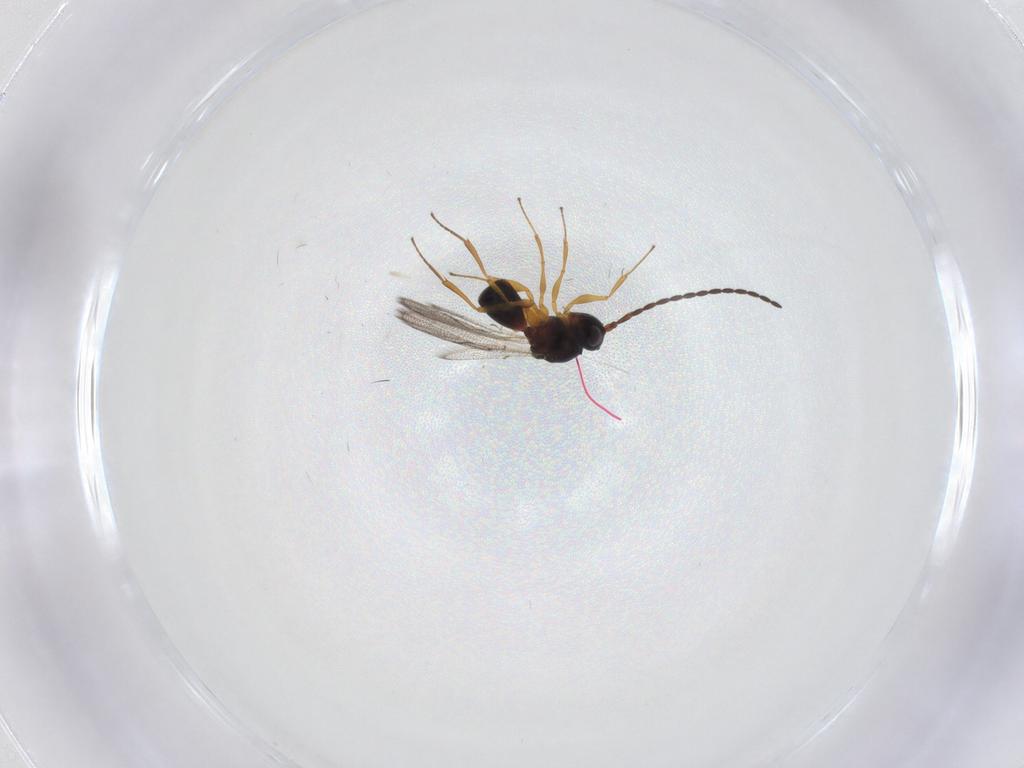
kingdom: Animalia
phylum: Arthropoda
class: Insecta
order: Hymenoptera
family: Figitidae
